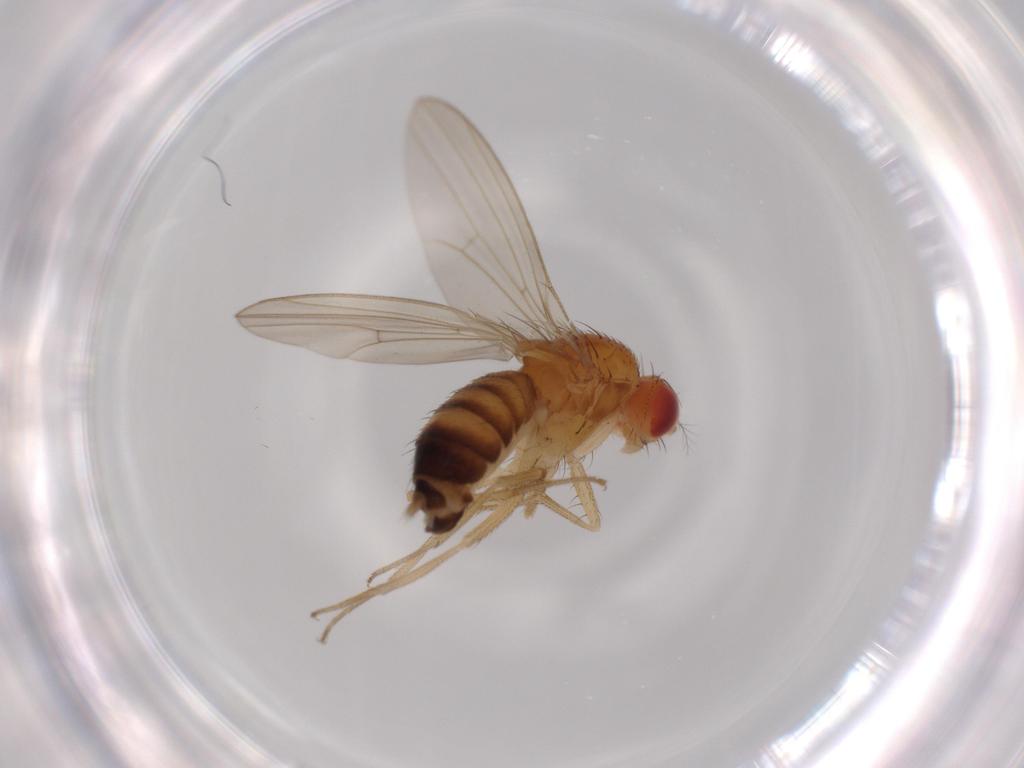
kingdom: Animalia
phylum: Arthropoda
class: Insecta
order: Diptera
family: Drosophilidae
